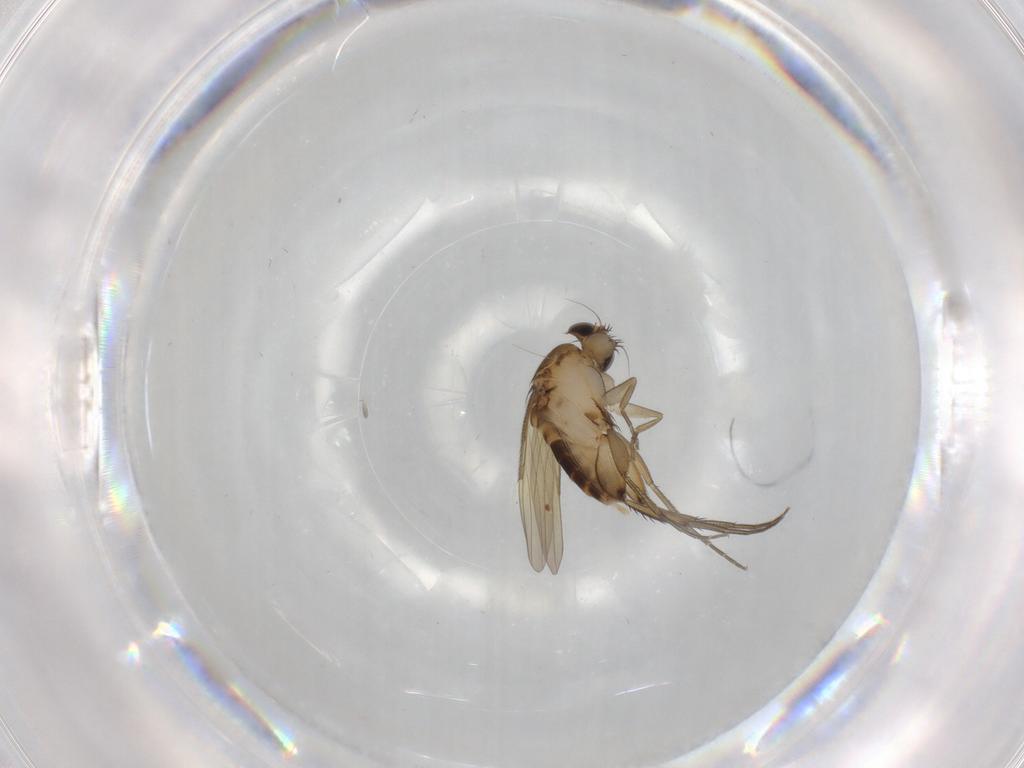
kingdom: Animalia
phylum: Arthropoda
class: Insecta
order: Diptera
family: Phoridae
